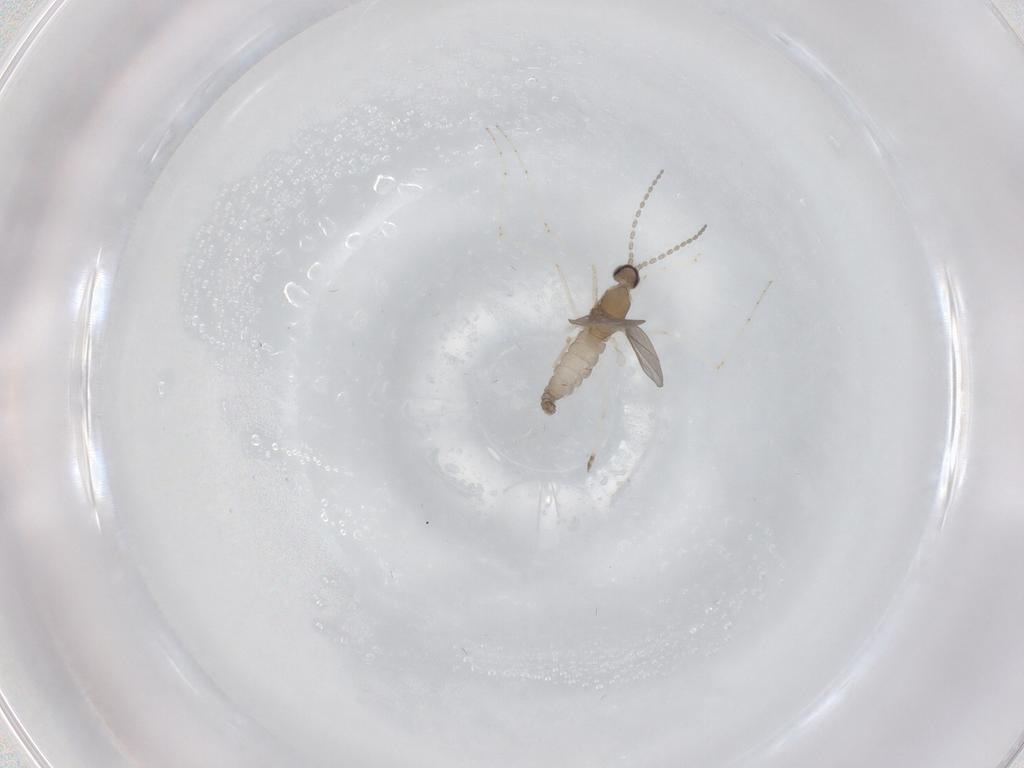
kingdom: Animalia
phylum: Arthropoda
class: Insecta
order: Diptera
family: Cecidomyiidae
